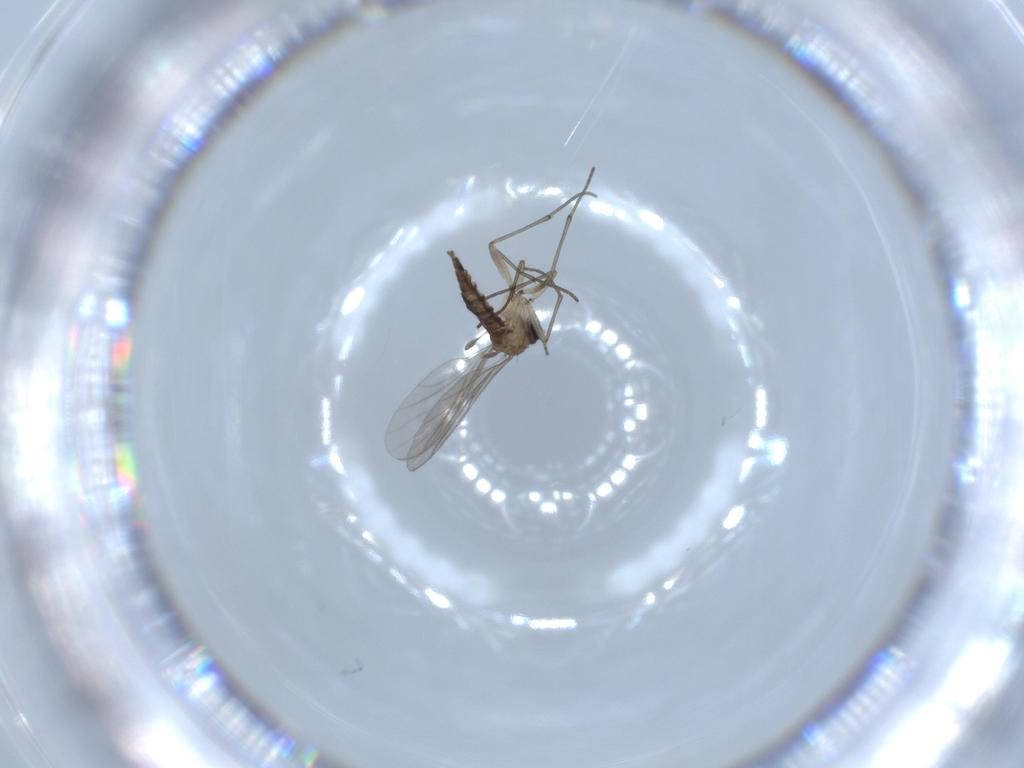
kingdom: Animalia
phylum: Arthropoda
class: Insecta
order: Diptera
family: Sciaridae
